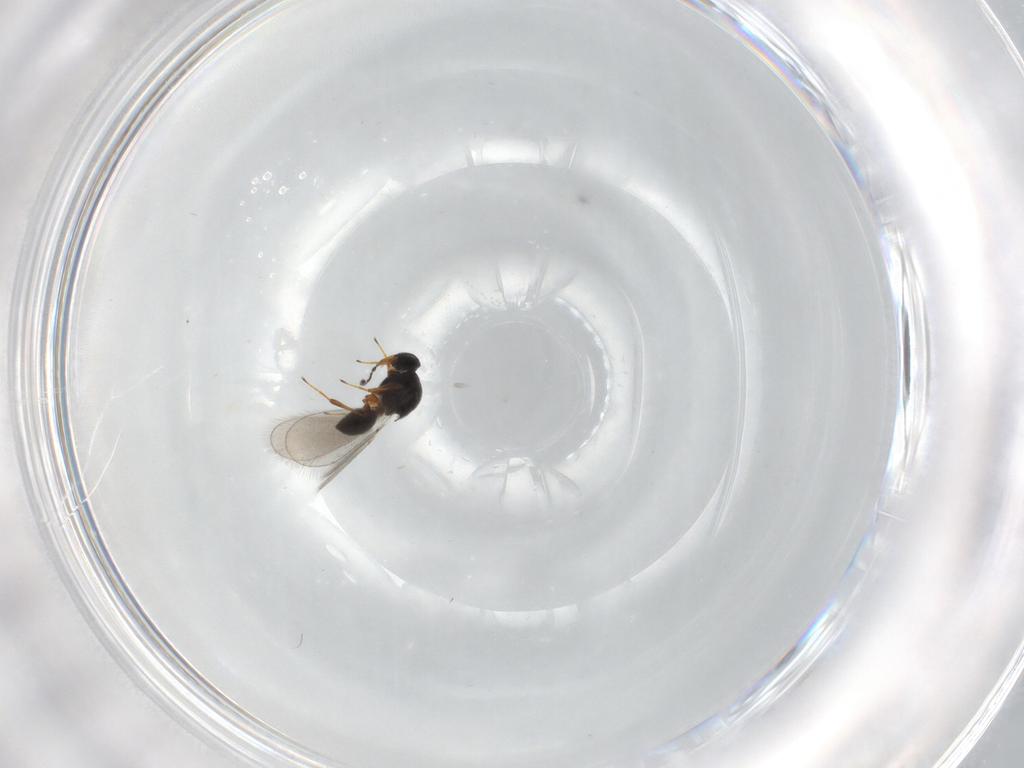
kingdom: Animalia
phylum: Arthropoda
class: Insecta
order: Hymenoptera
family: Platygastridae
